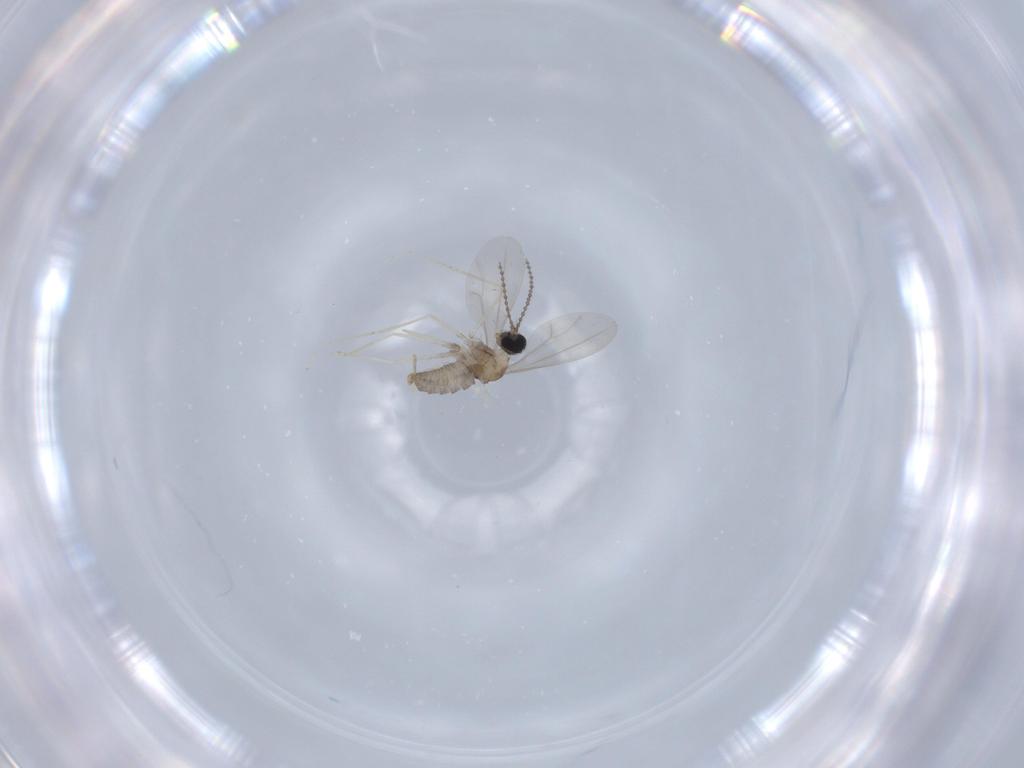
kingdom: Animalia
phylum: Arthropoda
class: Insecta
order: Diptera
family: Cecidomyiidae
